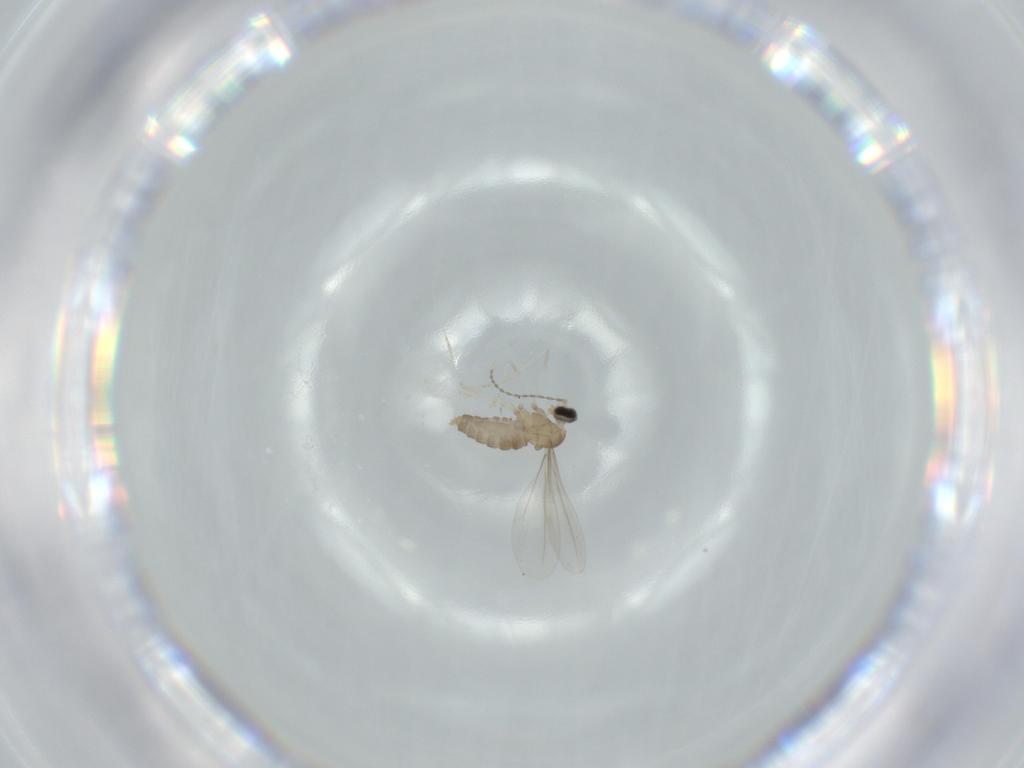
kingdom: Animalia
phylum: Arthropoda
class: Insecta
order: Diptera
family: Cecidomyiidae
